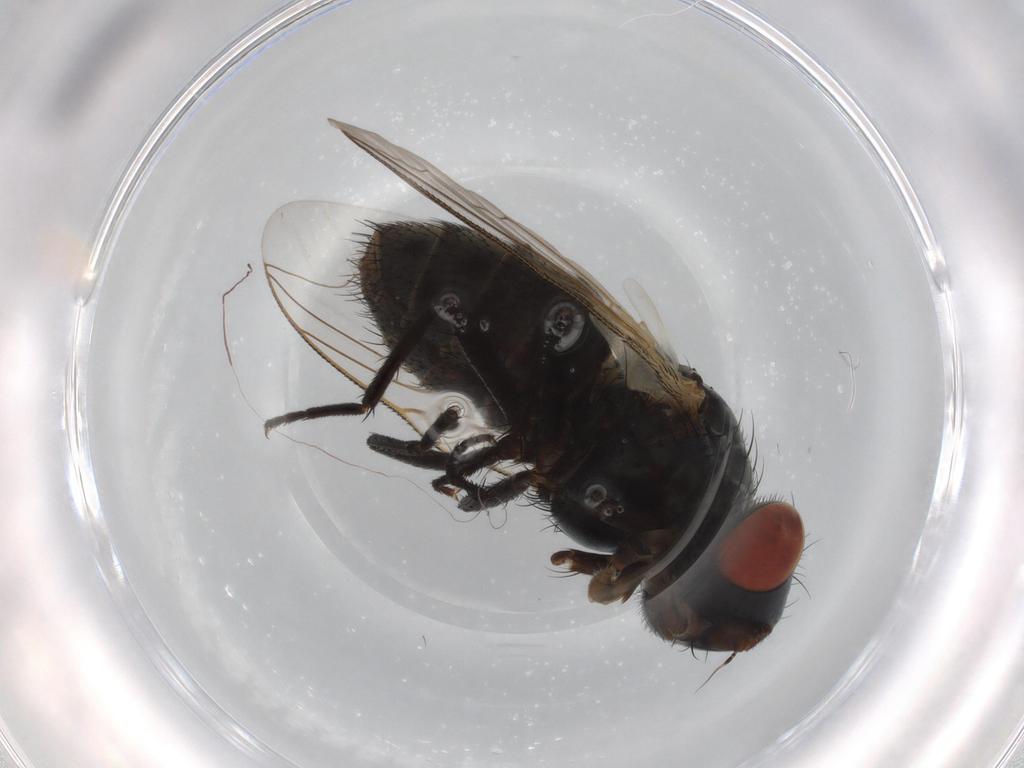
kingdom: Animalia
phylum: Arthropoda
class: Insecta
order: Diptera
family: Sarcophagidae
